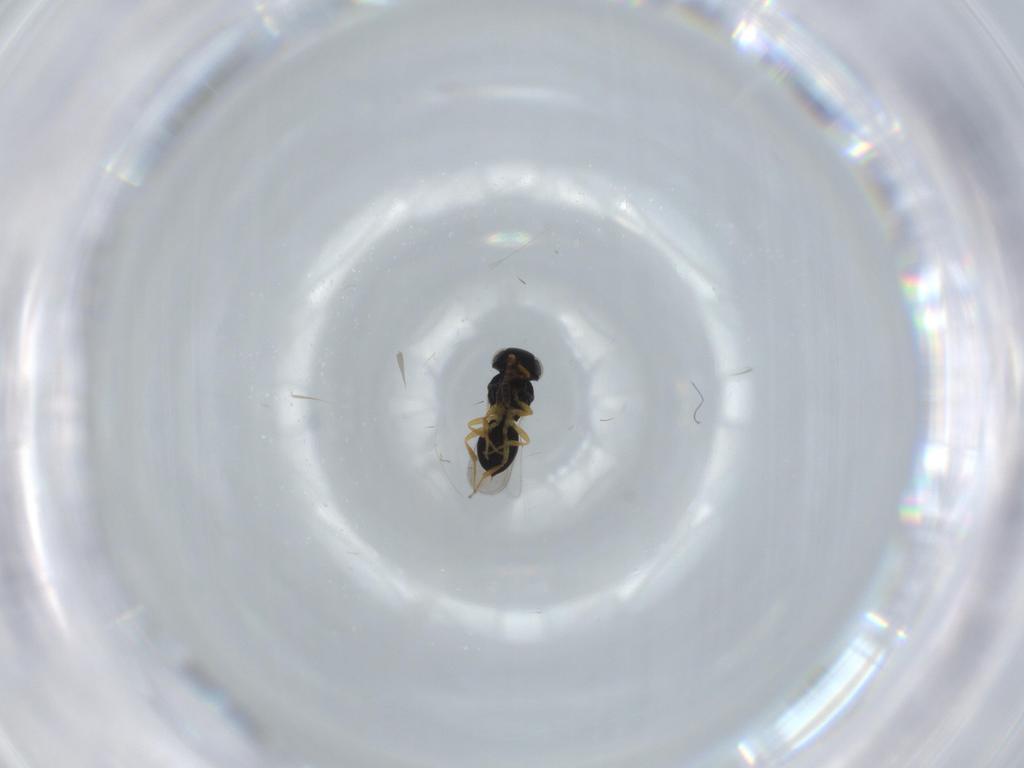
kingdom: Animalia
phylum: Arthropoda
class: Insecta
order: Hymenoptera
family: Scelionidae
